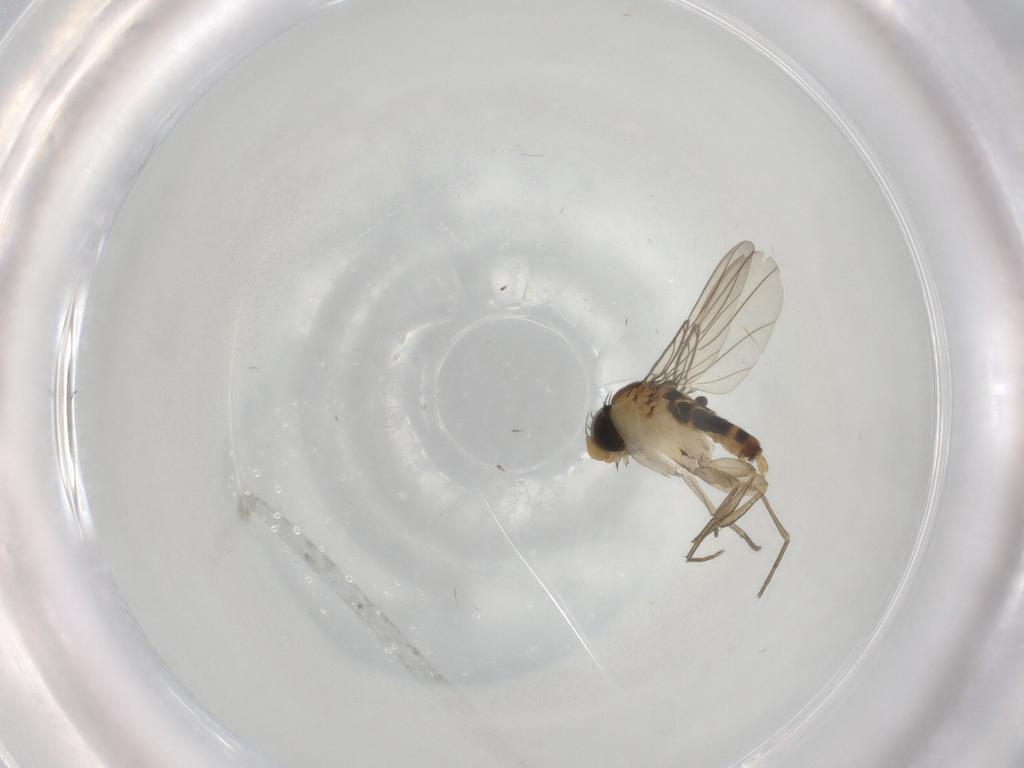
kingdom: Animalia
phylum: Arthropoda
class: Insecta
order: Diptera
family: Phoridae
